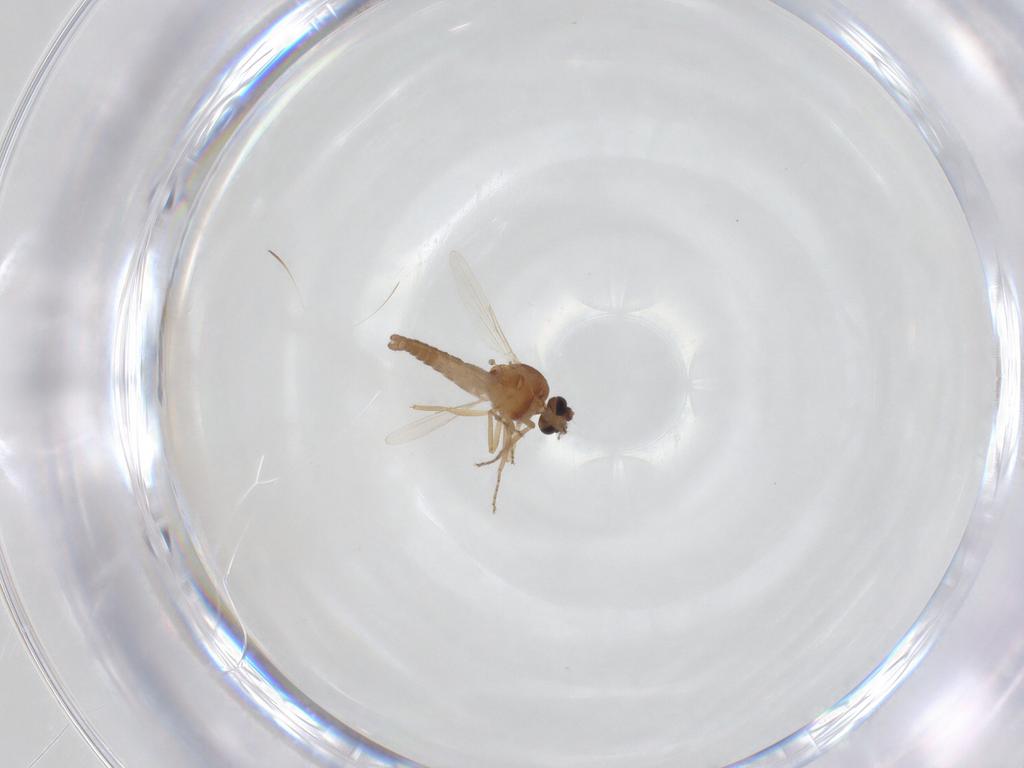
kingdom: Animalia
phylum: Arthropoda
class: Insecta
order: Diptera
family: Ceratopogonidae
